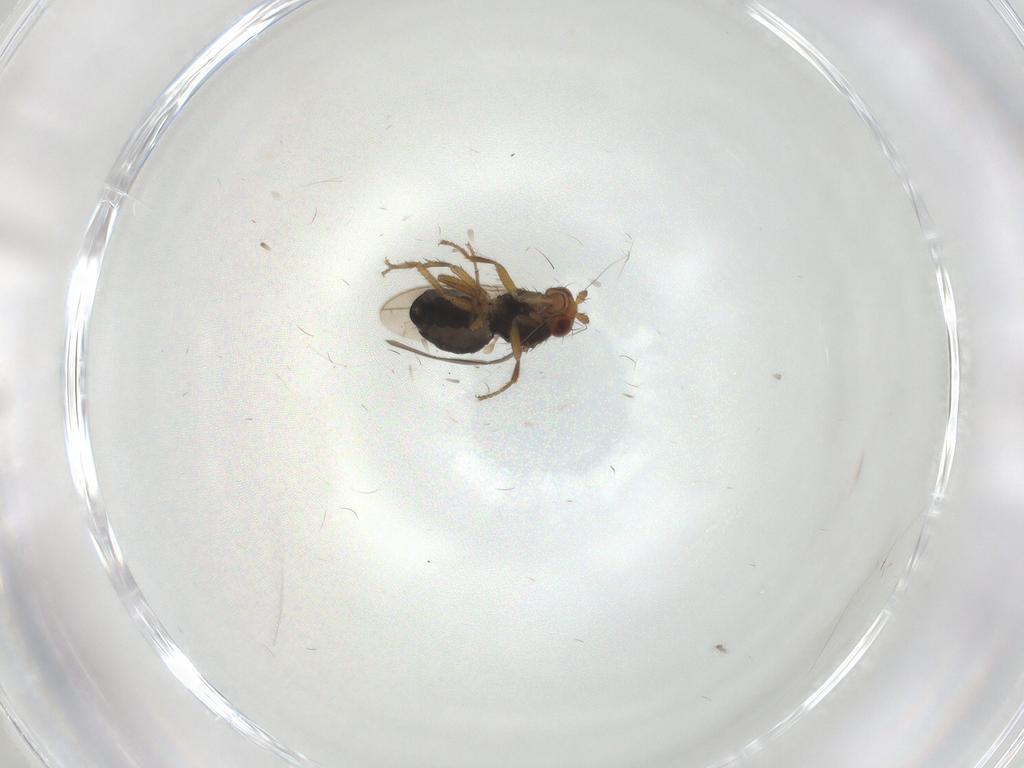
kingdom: Animalia
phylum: Arthropoda
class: Insecta
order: Diptera
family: Sphaeroceridae
